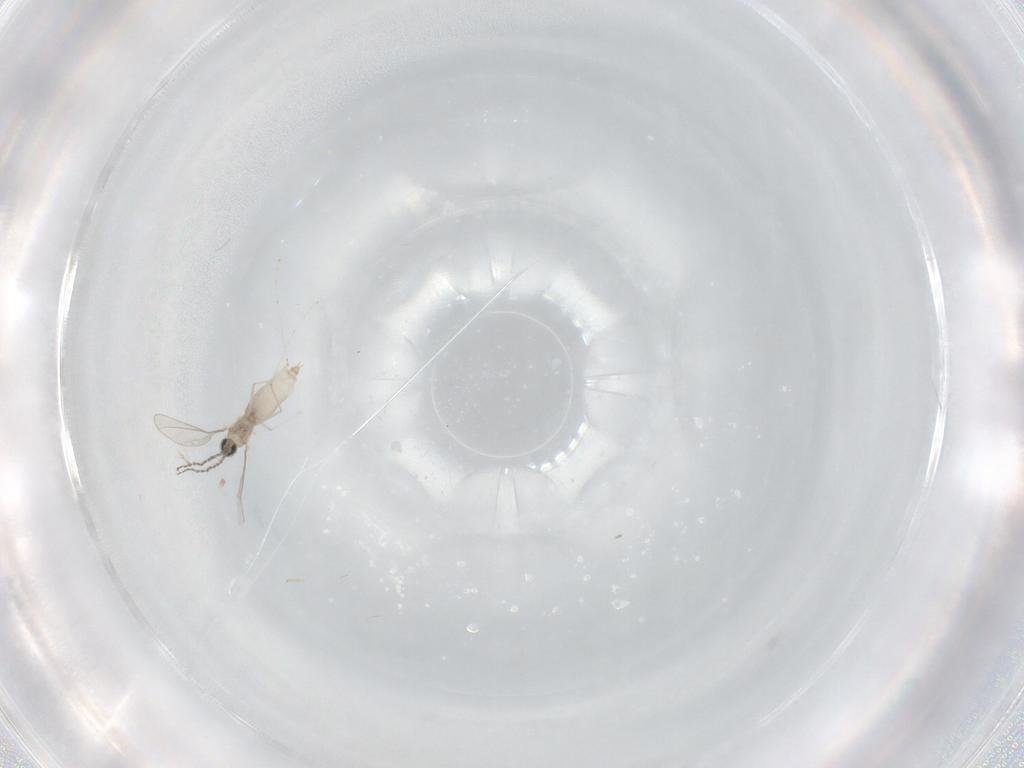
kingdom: Animalia
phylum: Arthropoda
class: Insecta
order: Diptera
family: Cecidomyiidae
